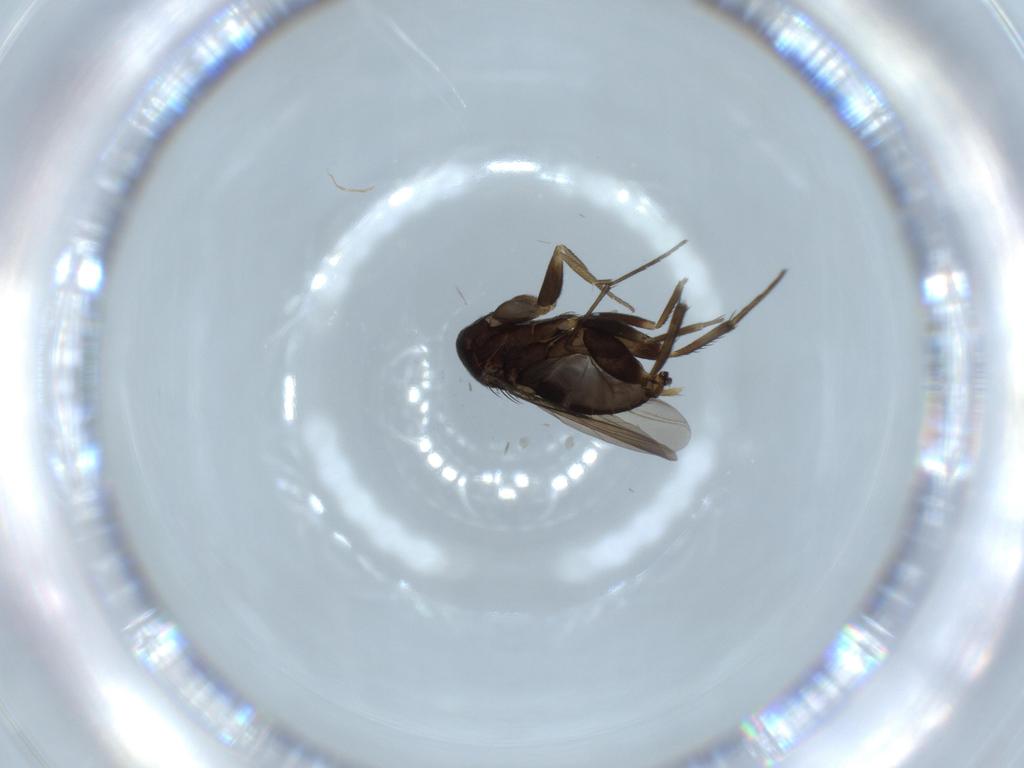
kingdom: Animalia
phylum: Arthropoda
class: Insecta
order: Diptera
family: Phoridae
